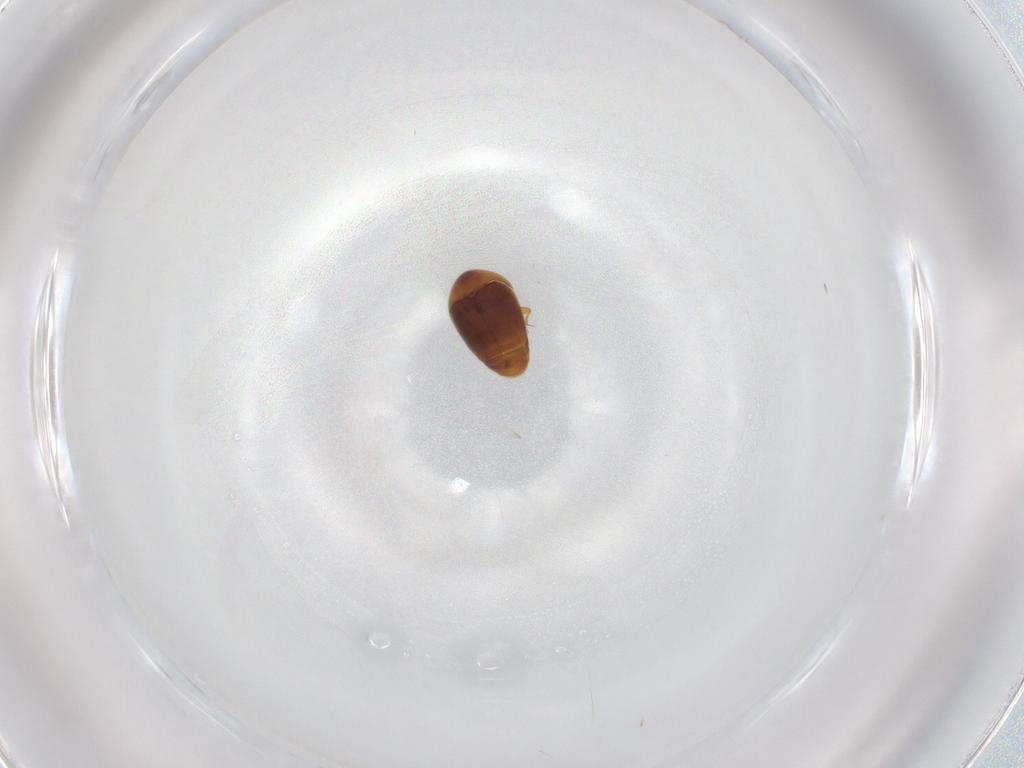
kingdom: Animalia
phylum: Arthropoda
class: Insecta
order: Coleoptera
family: Corylophidae
